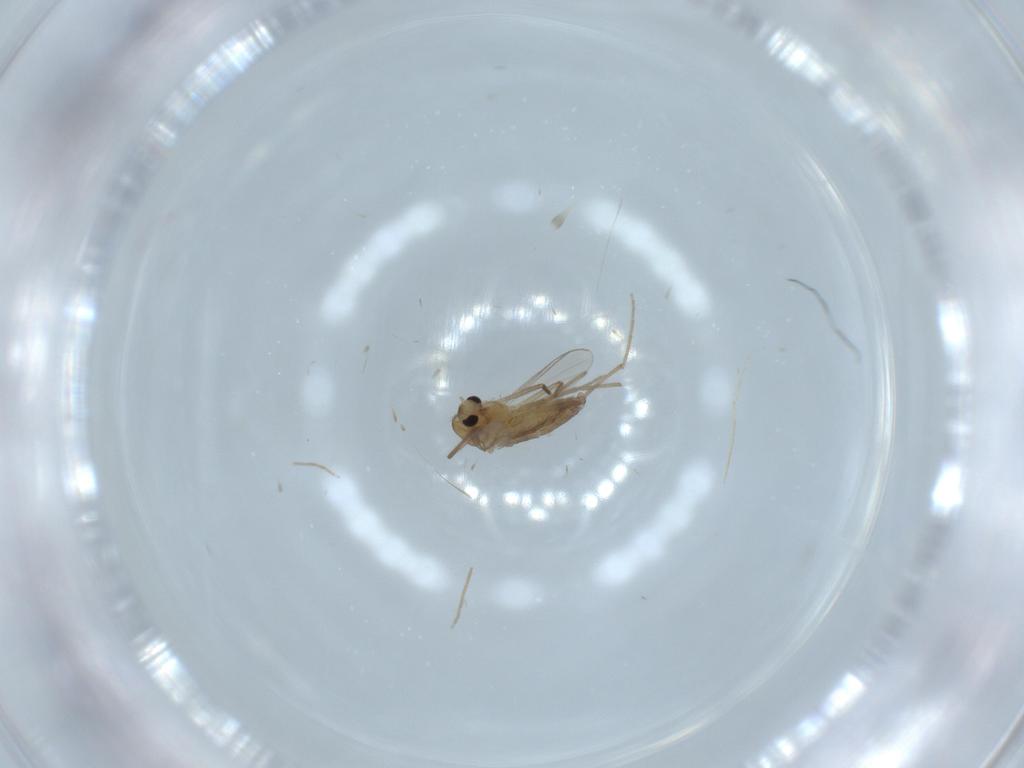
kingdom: Animalia
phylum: Arthropoda
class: Insecta
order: Diptera
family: Chironomidae
